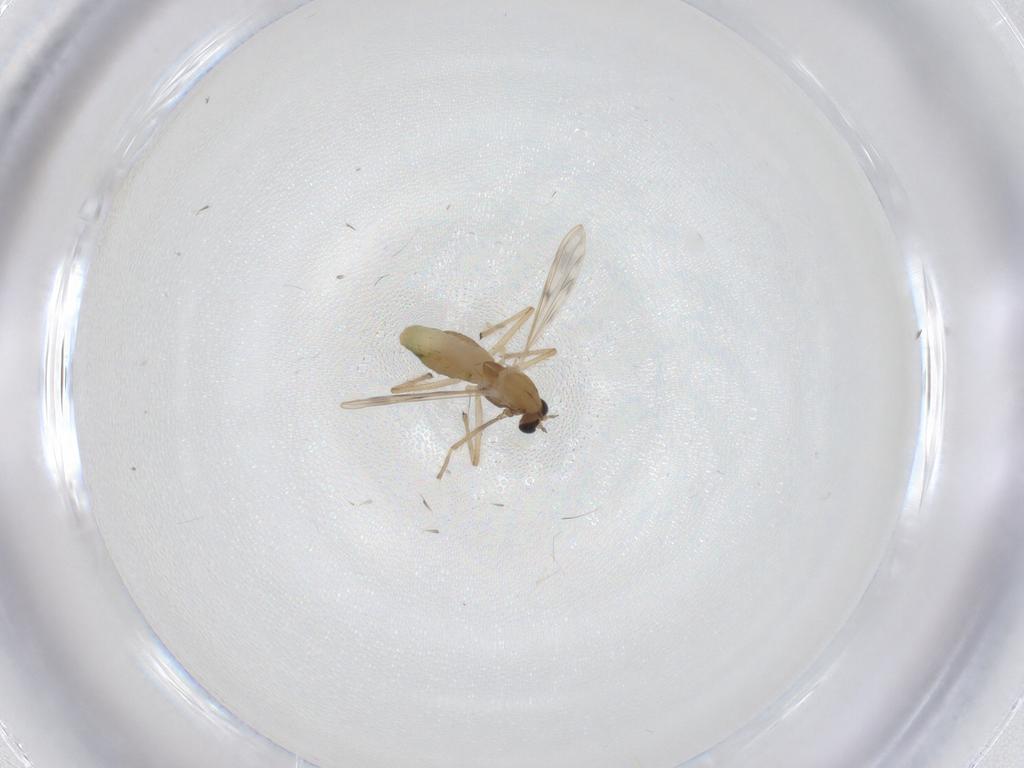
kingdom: Animalia
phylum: Arthropoda
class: Insecta
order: Diptera
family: Chironomidae
